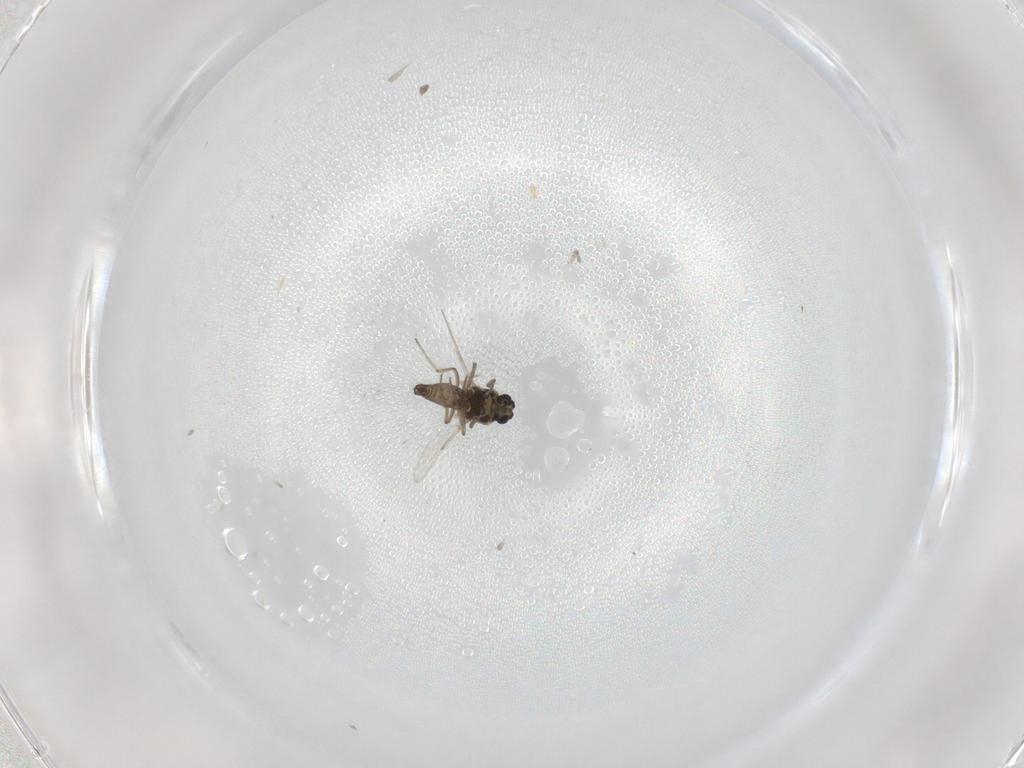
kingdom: Animalia
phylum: Arthropoda
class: Insecta
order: Diptera
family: Ceratopogonidae
